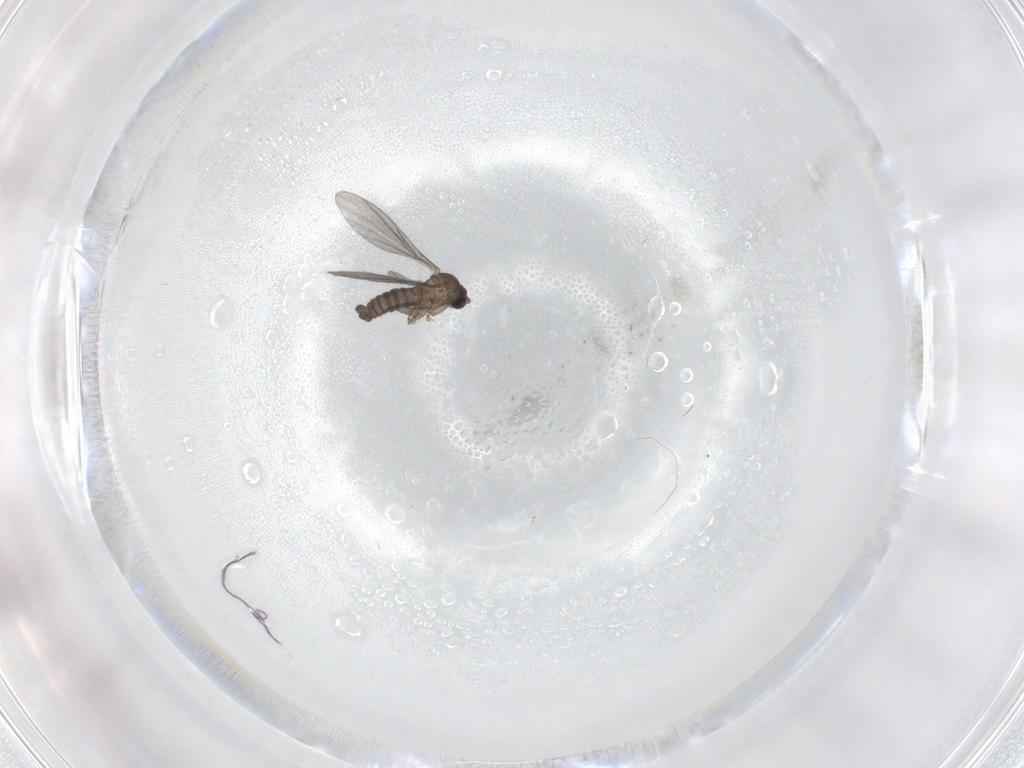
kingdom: Animalia
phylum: Arthropoda
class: Insecta
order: Diptera
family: Sciaridae
